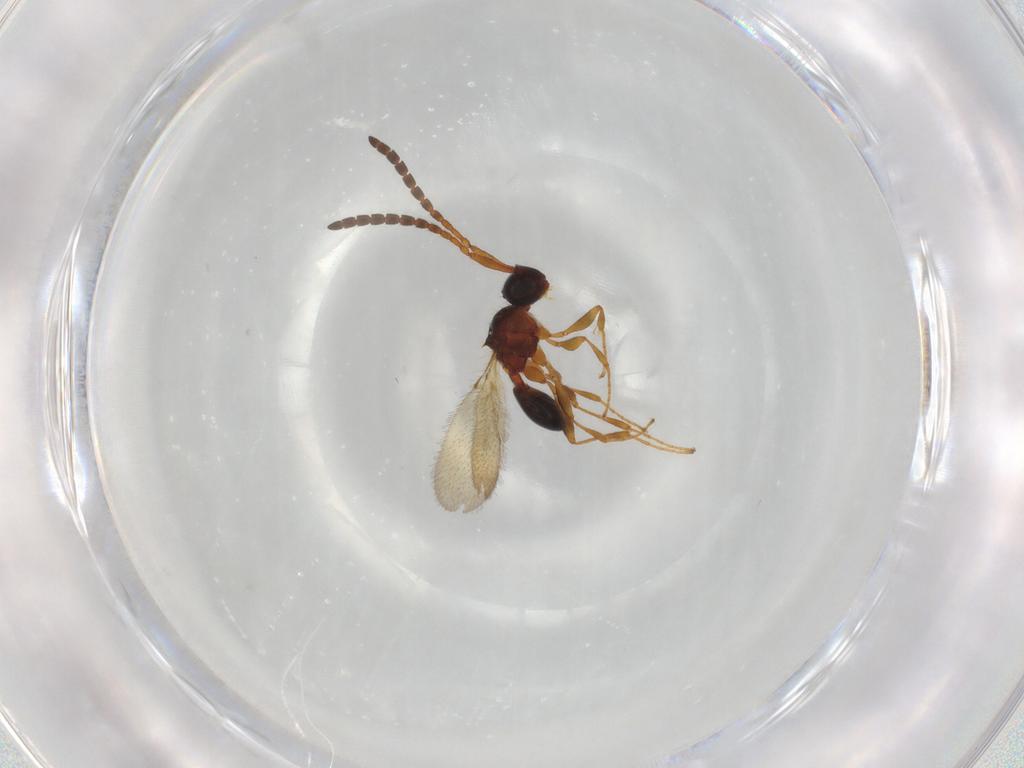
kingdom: Animalia
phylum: Arthropoda
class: Insecta
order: Hymenoptera
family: Diapriidae
